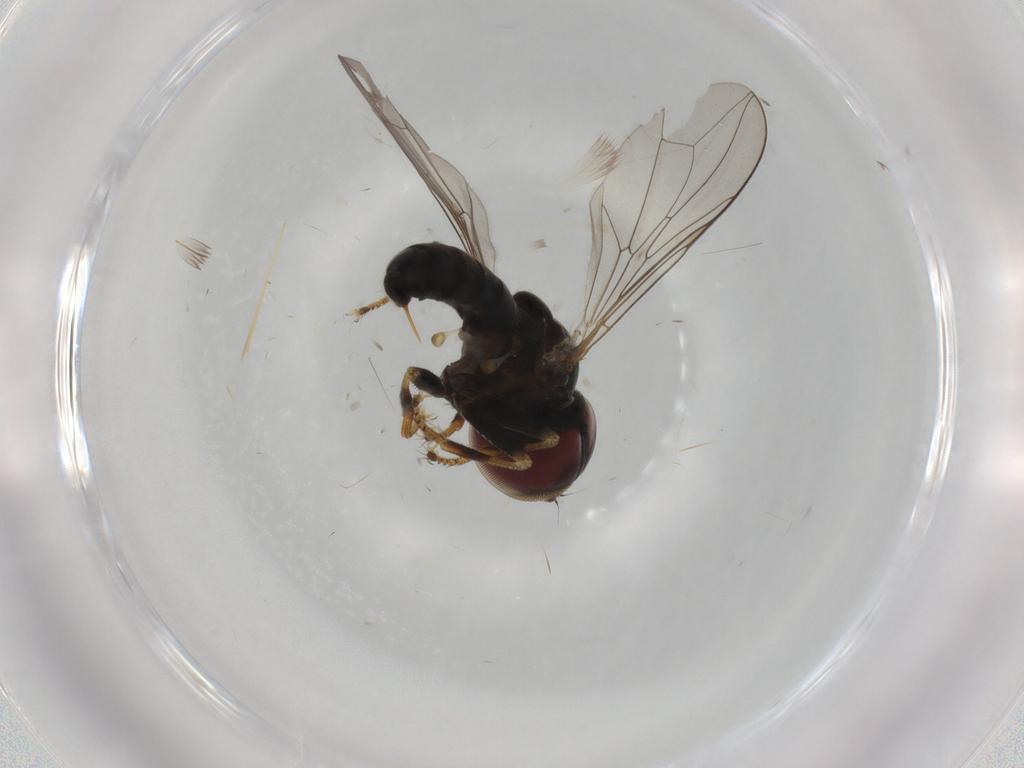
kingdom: Animalia
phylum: Arthropoda
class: Insecta
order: Diptera
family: Pipunculidae
